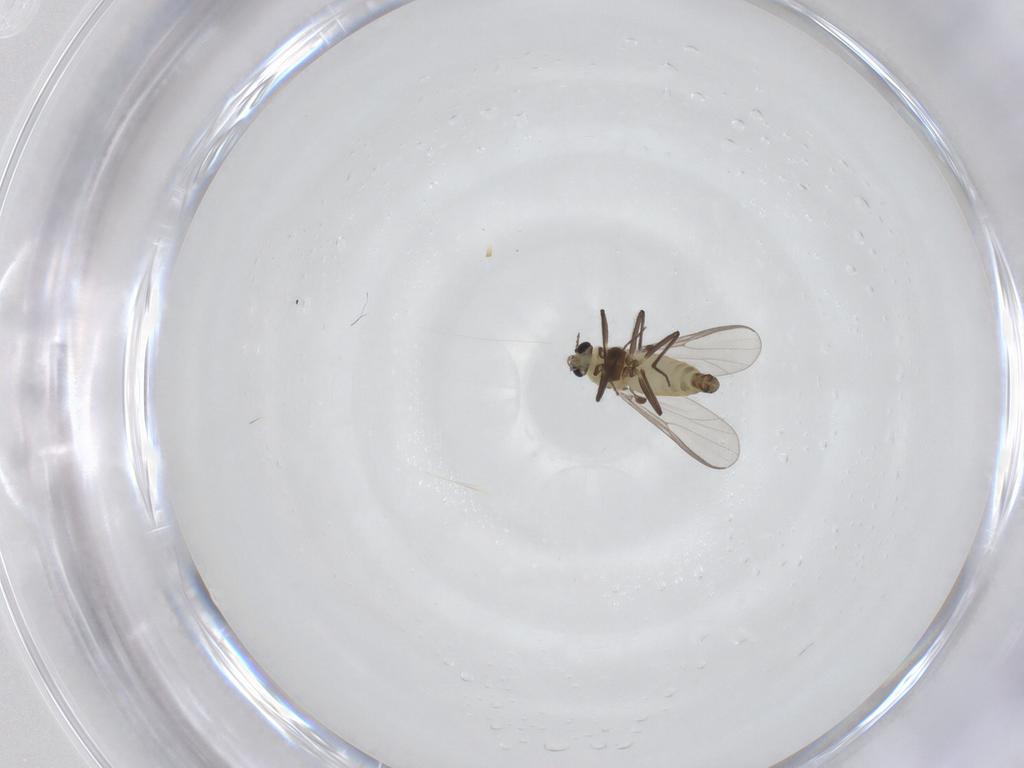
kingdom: Animalia
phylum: Arthropoda
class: Insecta
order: Diptera
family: Chironomidae
